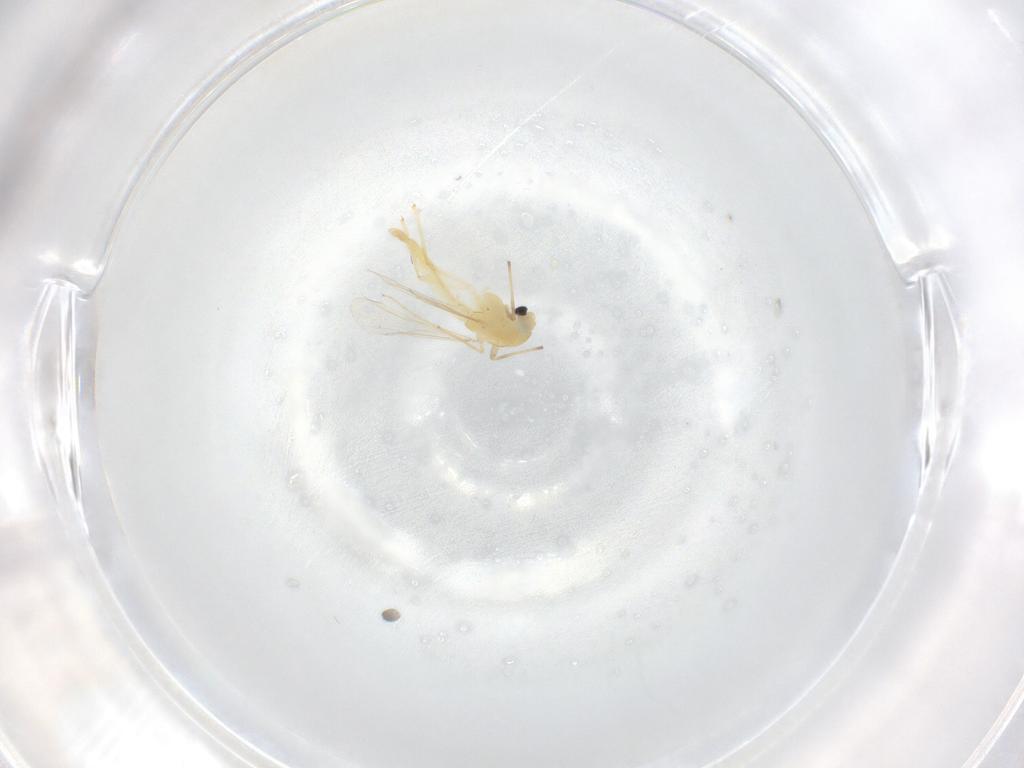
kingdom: Animalia
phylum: Arthropoda
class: Insecta
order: Diptera
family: Chironomidae
